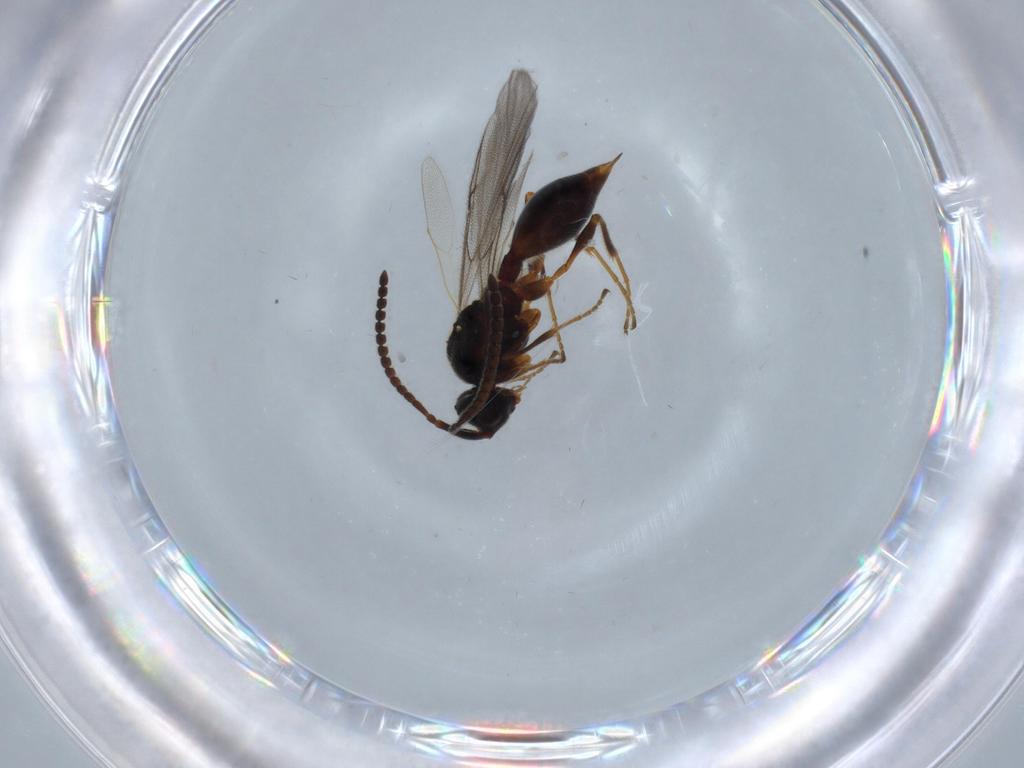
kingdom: Animalia
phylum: Arthropoda
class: Insecta
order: Hymenoptera
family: Diapriidae
